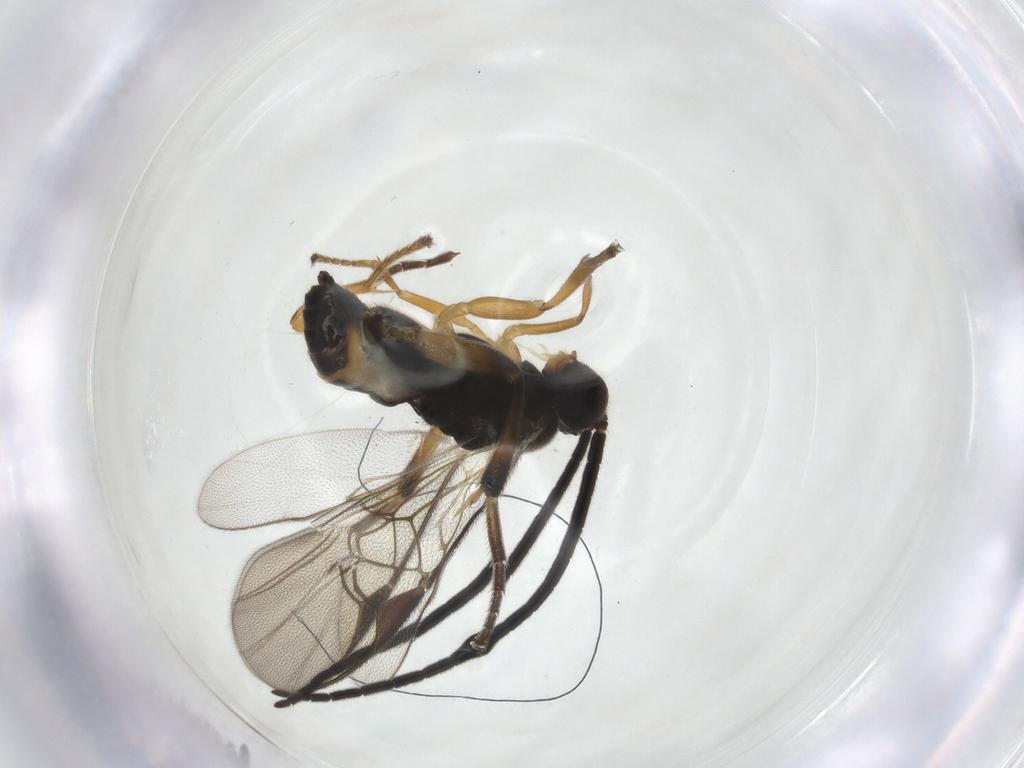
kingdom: Animalia
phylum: Arthropoda
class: Insecta
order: Hymenoptera
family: Braconidae
